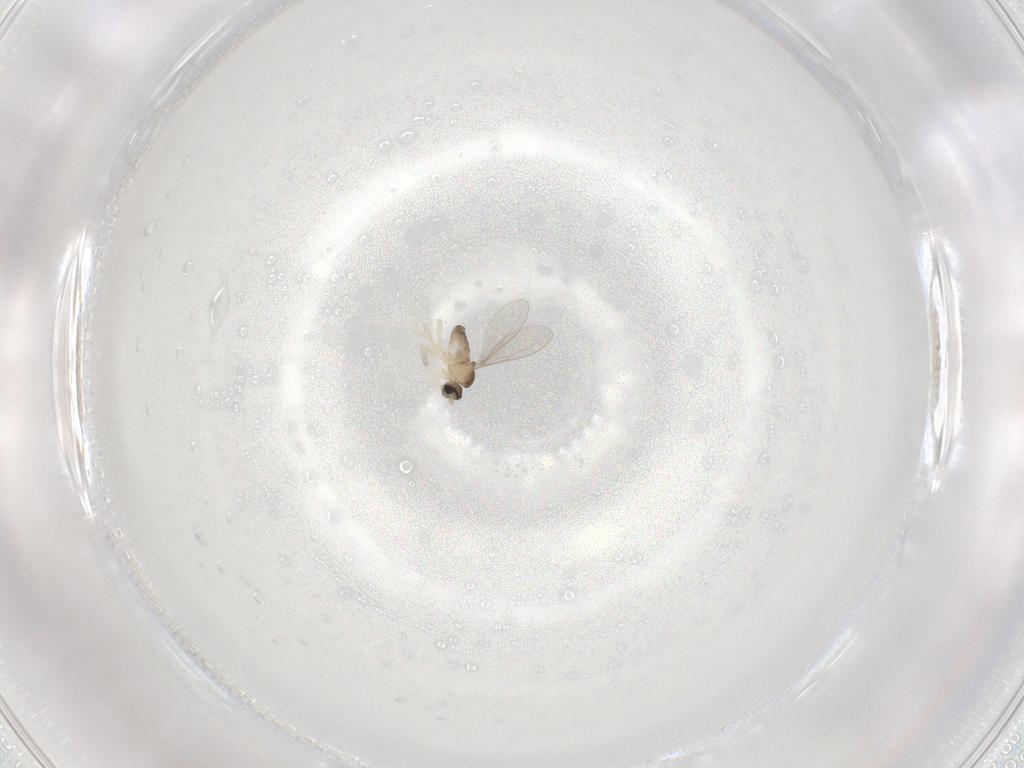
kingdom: Animalia
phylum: Arthropoda
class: Insecta
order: Diptera
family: Cecidomyiidae
